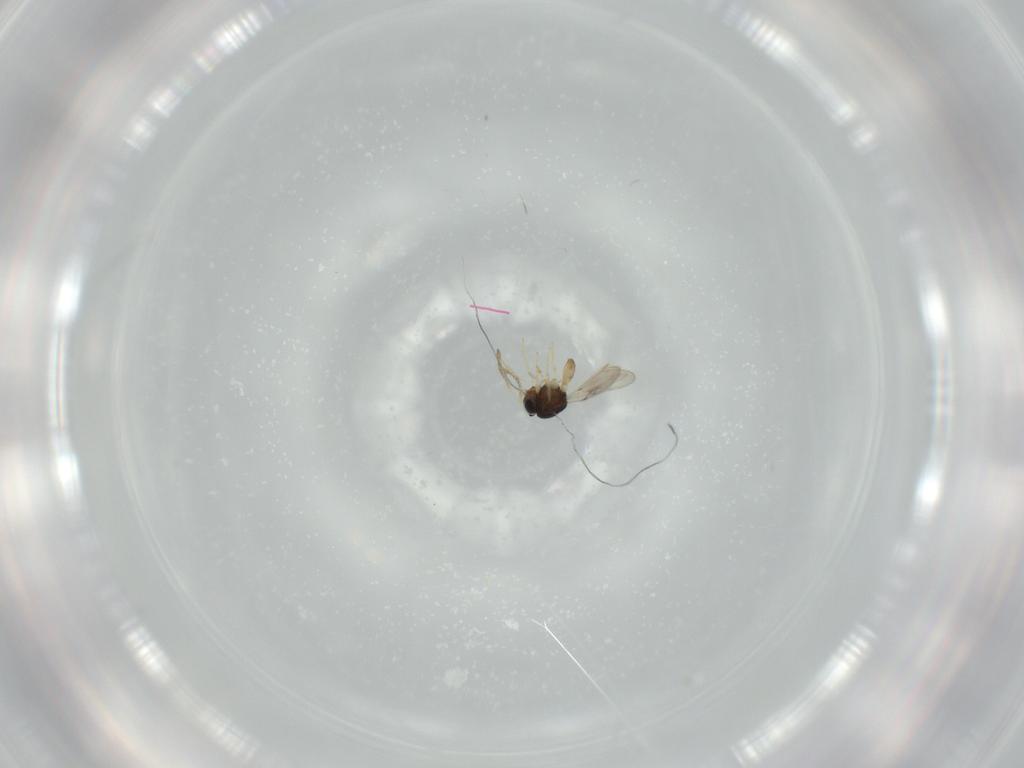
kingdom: Animalia
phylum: Arthropoda
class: Insecta
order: Hymenoptera
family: Scelionidae
